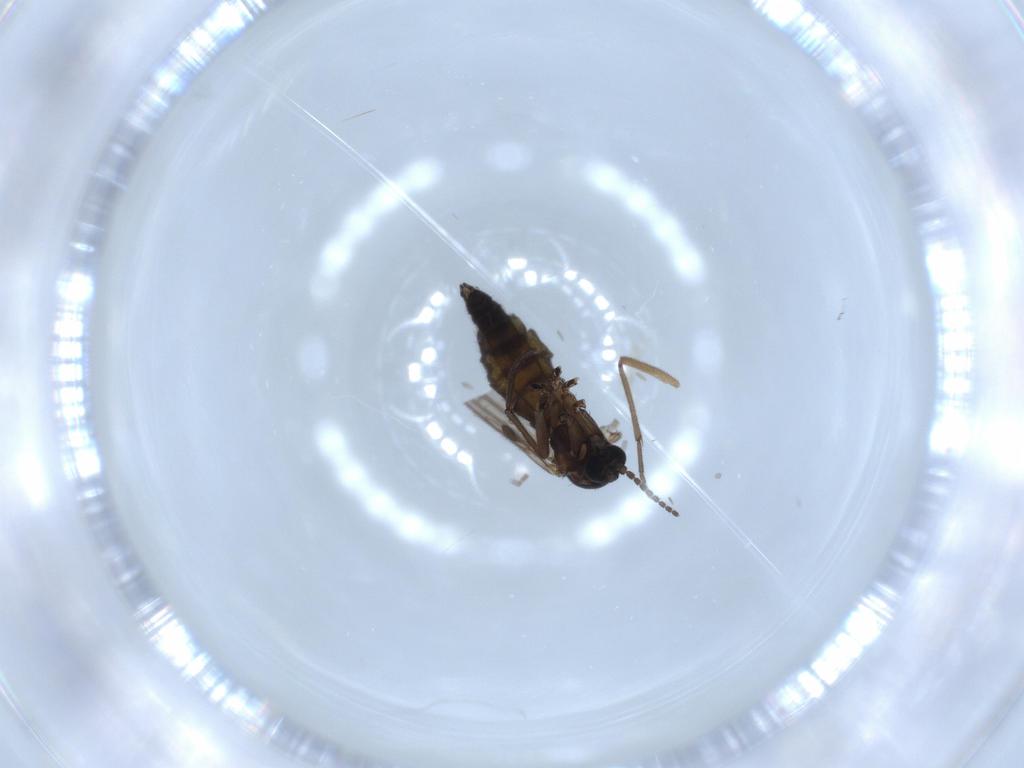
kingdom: Animalia
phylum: Arthropoda
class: Insecta
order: Diptera
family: Sciaridae
